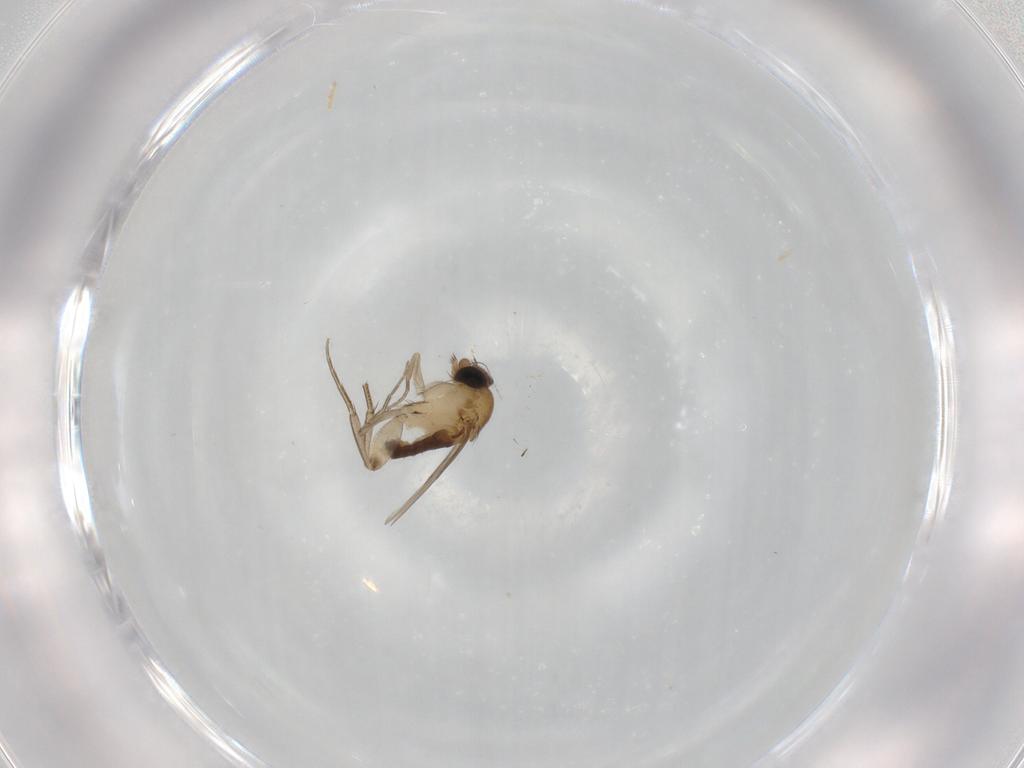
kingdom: Animalia
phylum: Arthropoda
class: Insecta
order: Diptera
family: Phoridae
